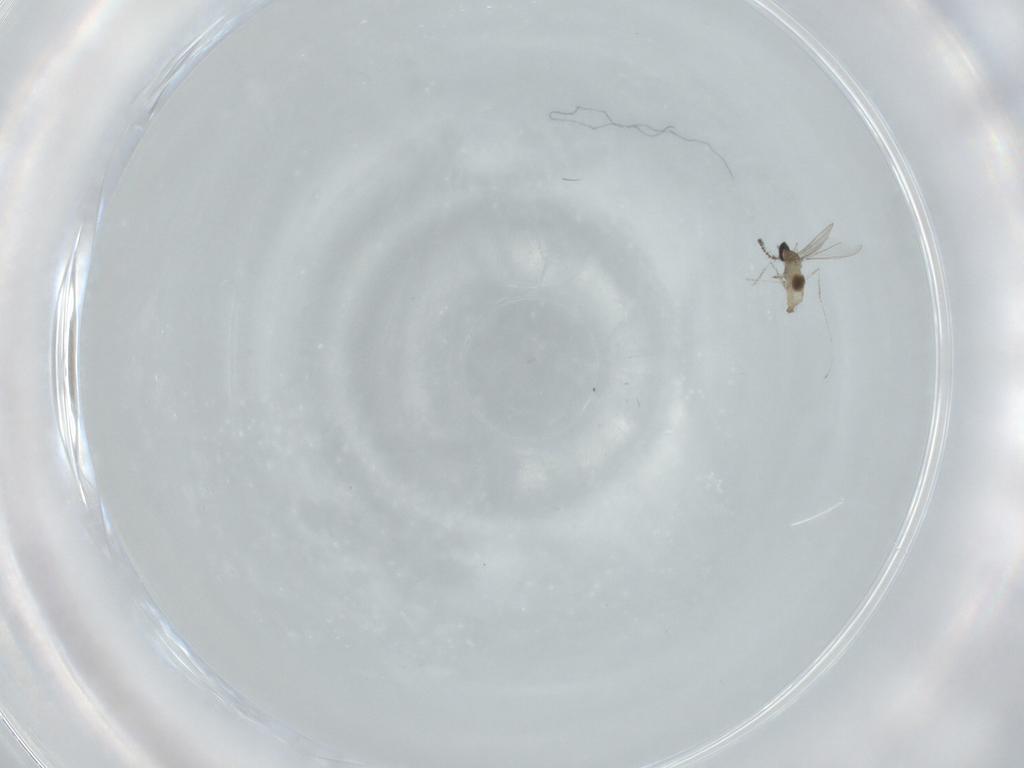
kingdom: Animalia
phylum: Arthropoda
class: Insecta
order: Diptera
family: Cecidomyiidae
